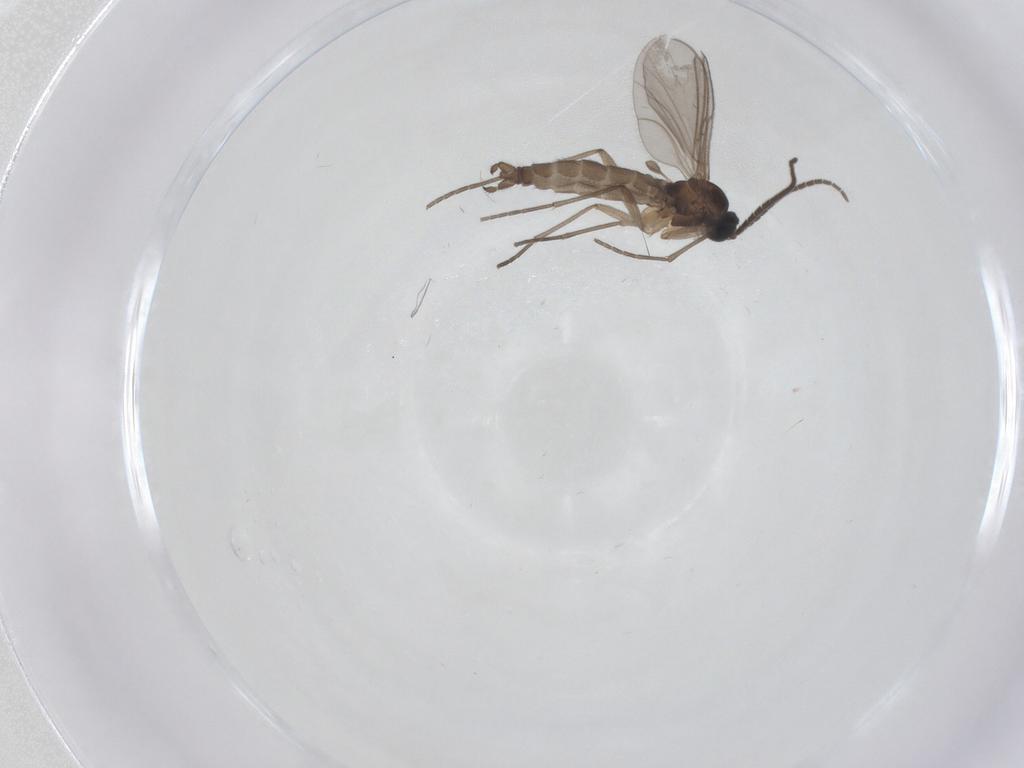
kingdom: Animalia
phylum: Arthropoda
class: Insecta
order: Diptera
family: Sciaridae
